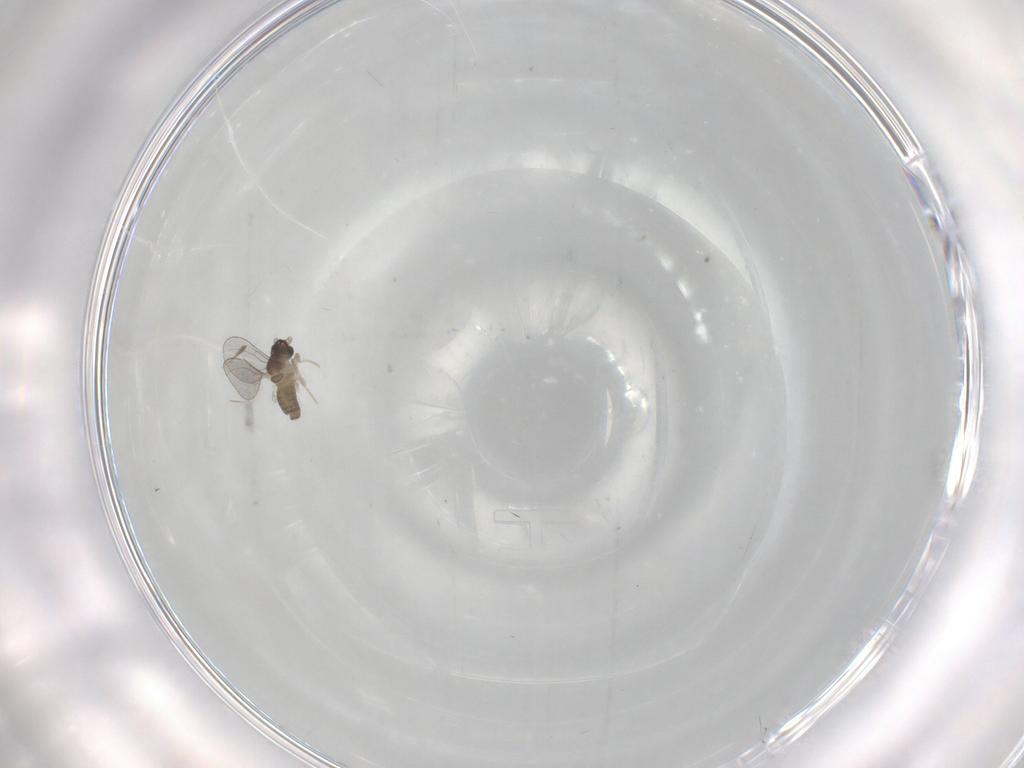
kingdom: Animalia
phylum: Arthropoda
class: Insecta
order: Diptera
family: Cecidomyiidae
